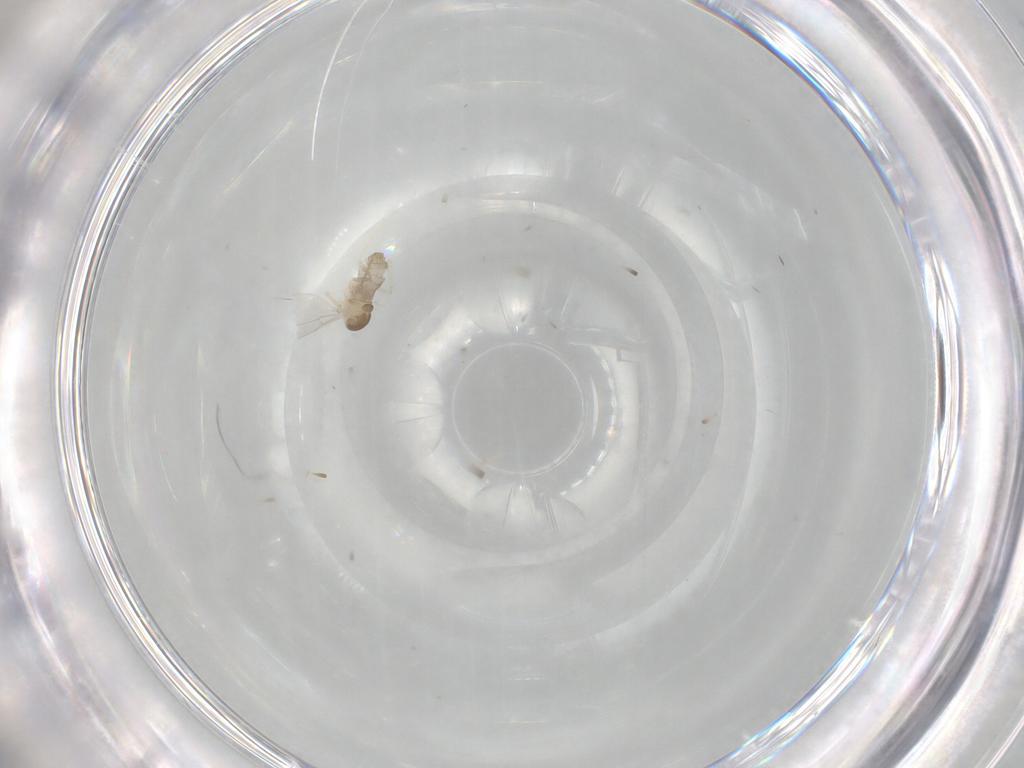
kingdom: Animalia
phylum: Arthropoda
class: Insecta
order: Diptera
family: Cecidomyiidae
